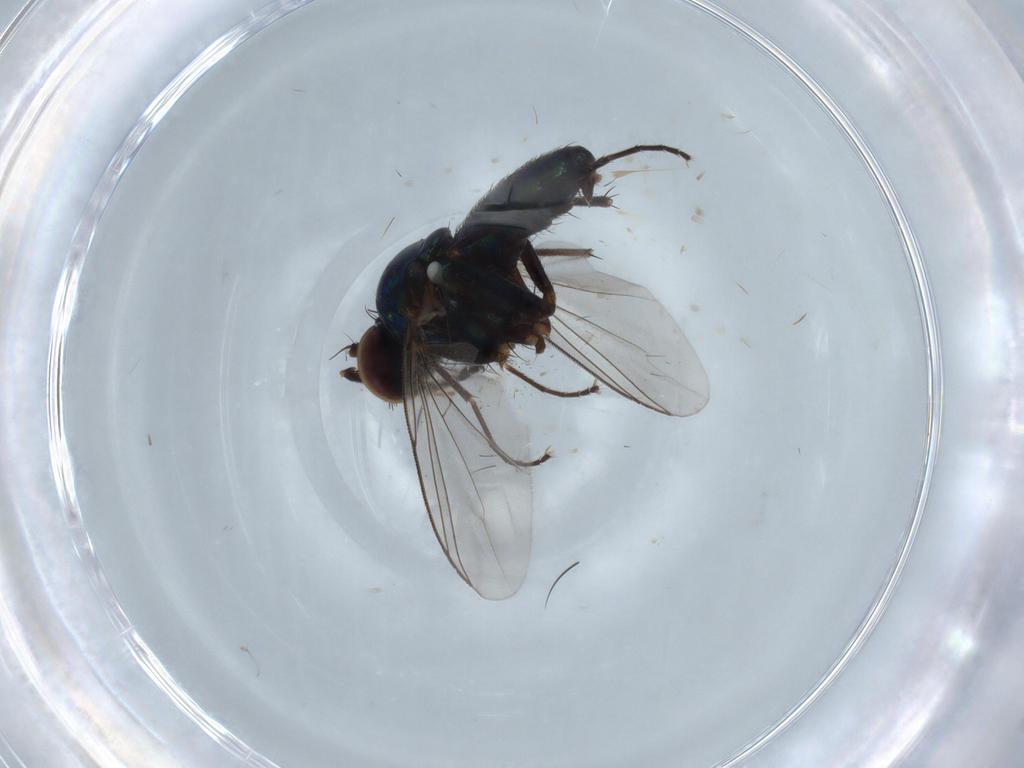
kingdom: Animalia
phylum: Arthropoda
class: Insecta
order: Diptera
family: Dolichopodidae
